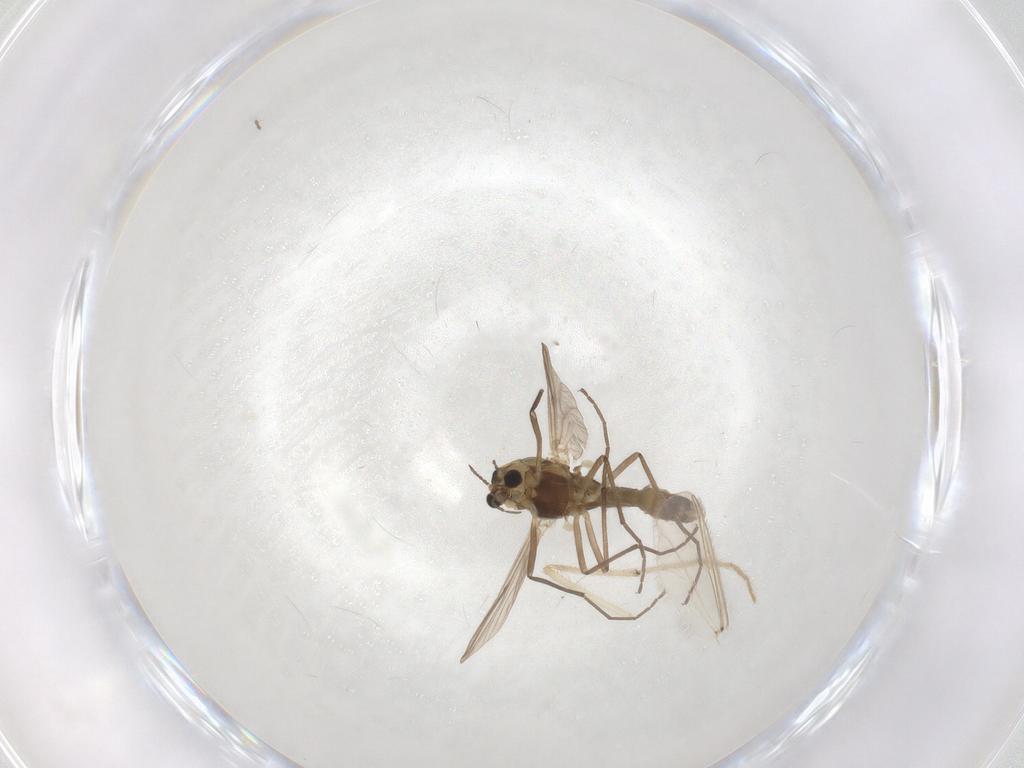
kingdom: Animalia
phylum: Arthropoda
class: Insecta
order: Diptera
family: Chironomidae
